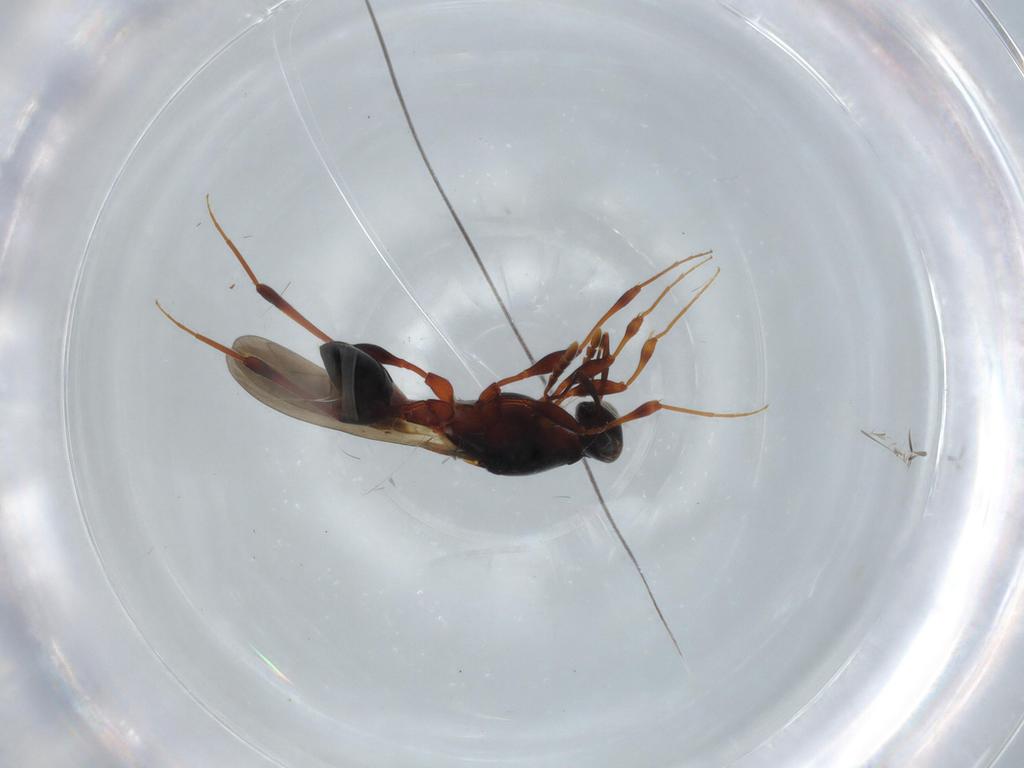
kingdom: Animalia
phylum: Arthropoda
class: Insecta
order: Hymenoptera
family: Platygastridae
